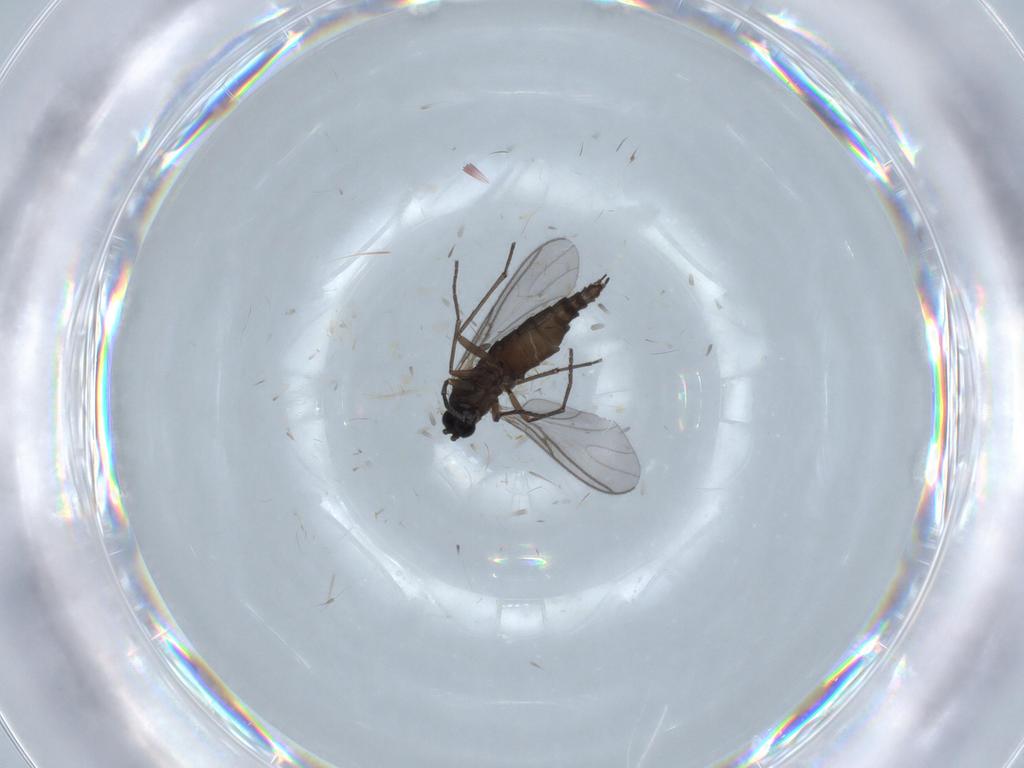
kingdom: Animalia
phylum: Arthropoda
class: Insecta
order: Diptera
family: Sciaridae
